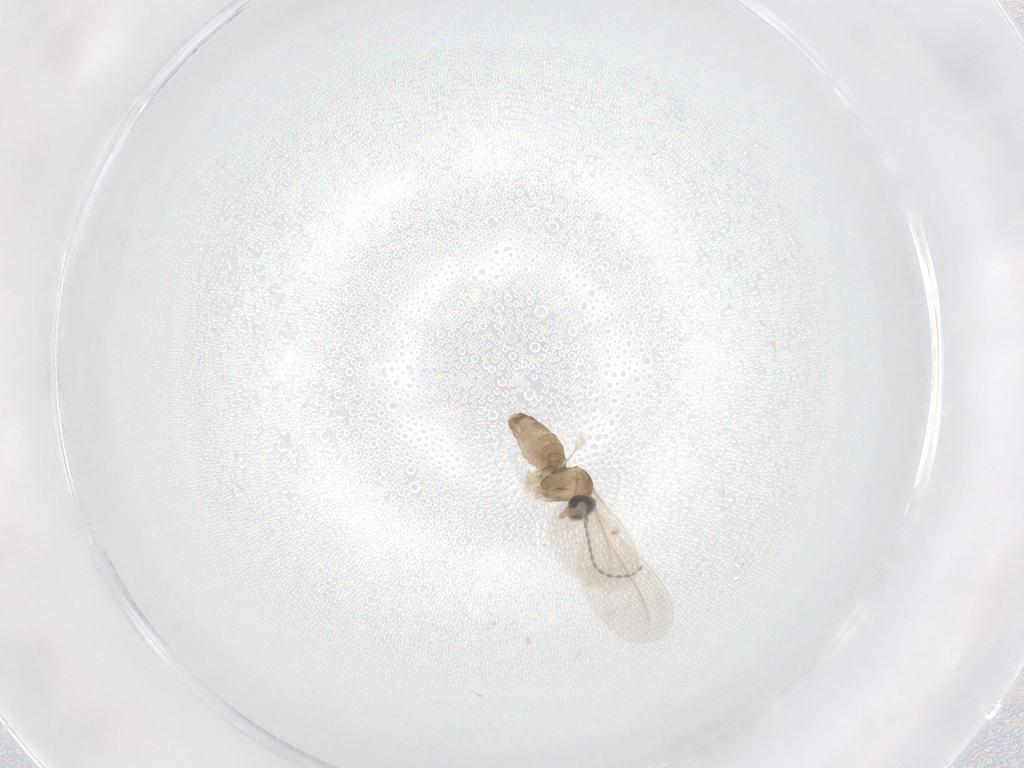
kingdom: Animalia
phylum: Arthropoda
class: Insecta
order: Diptera
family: Cecidomyiidae
